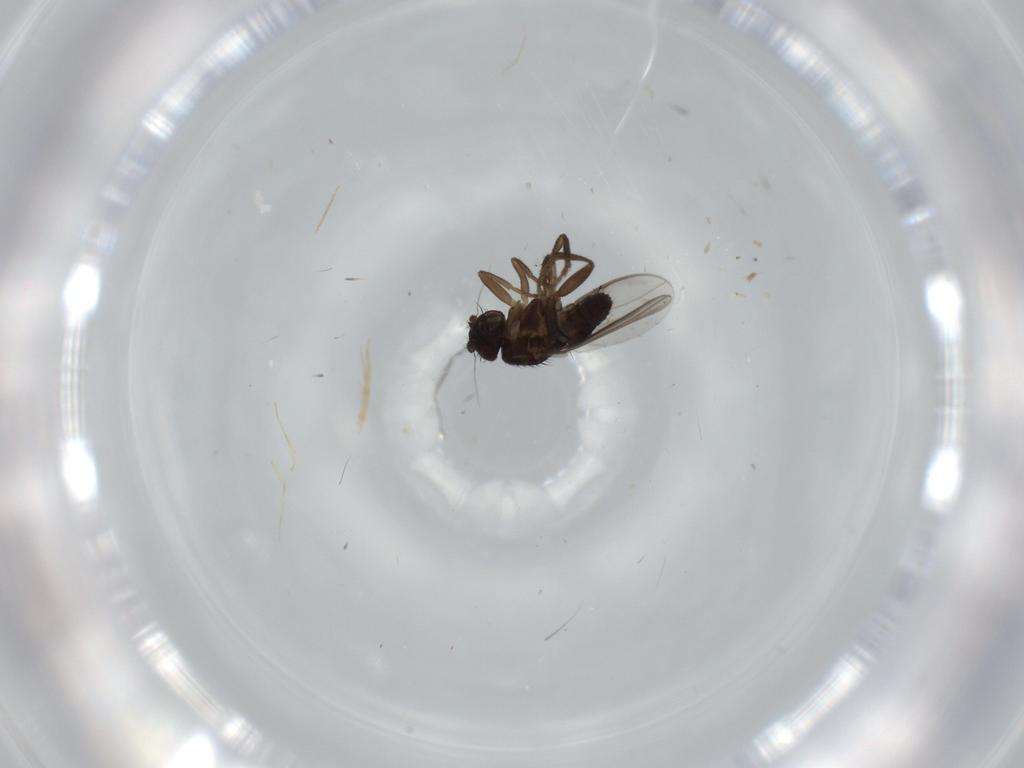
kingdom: Animalia
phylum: Arthropoda
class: Insecta
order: Diptera
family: Sphaeroceridae
